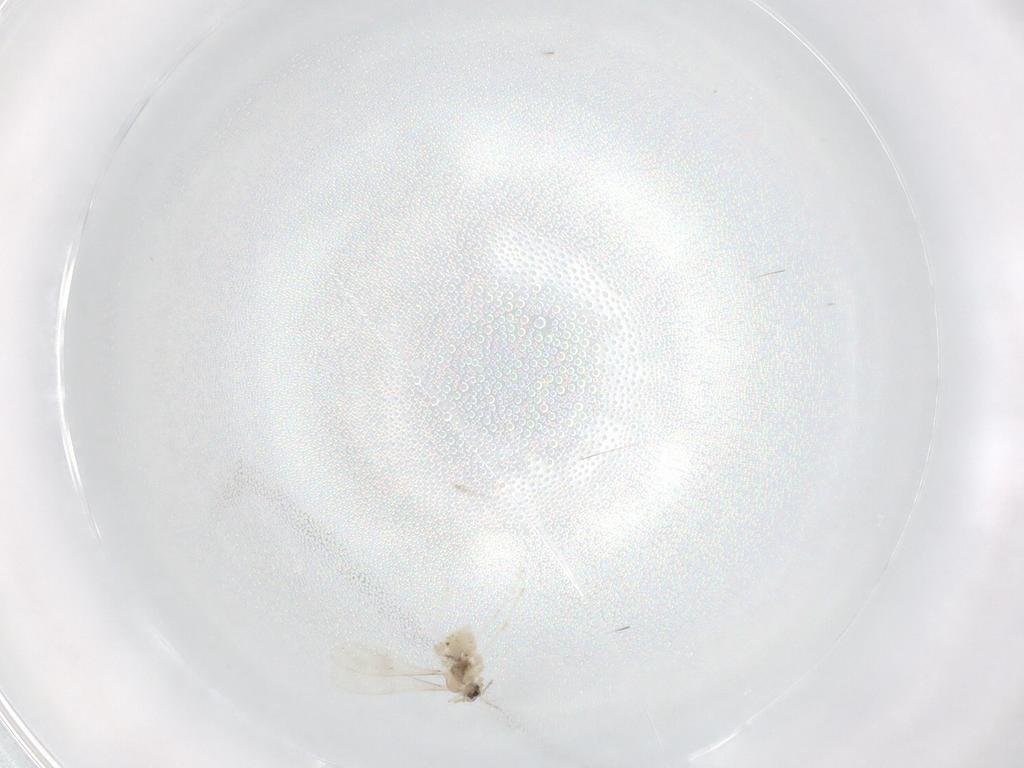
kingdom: Animalia
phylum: Arthropoda
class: Insecta
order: Diptera
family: Cecidomyiidae
